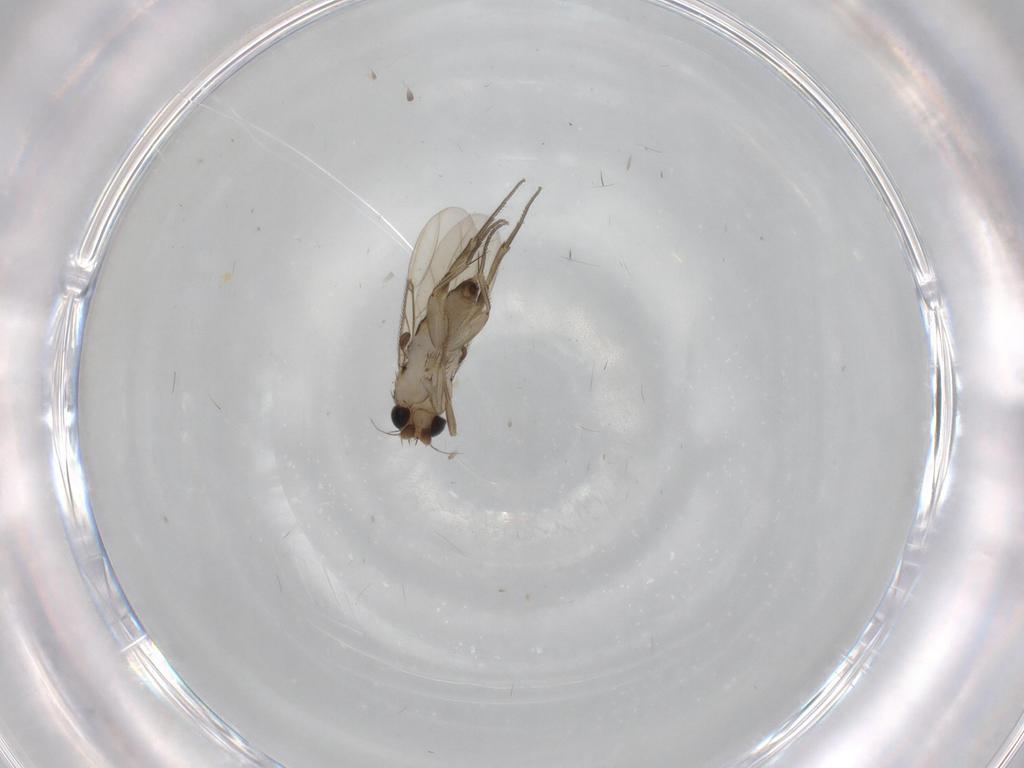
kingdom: Animalia
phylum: Arthropoda
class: Insecta
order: Diptera
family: Phoridae
